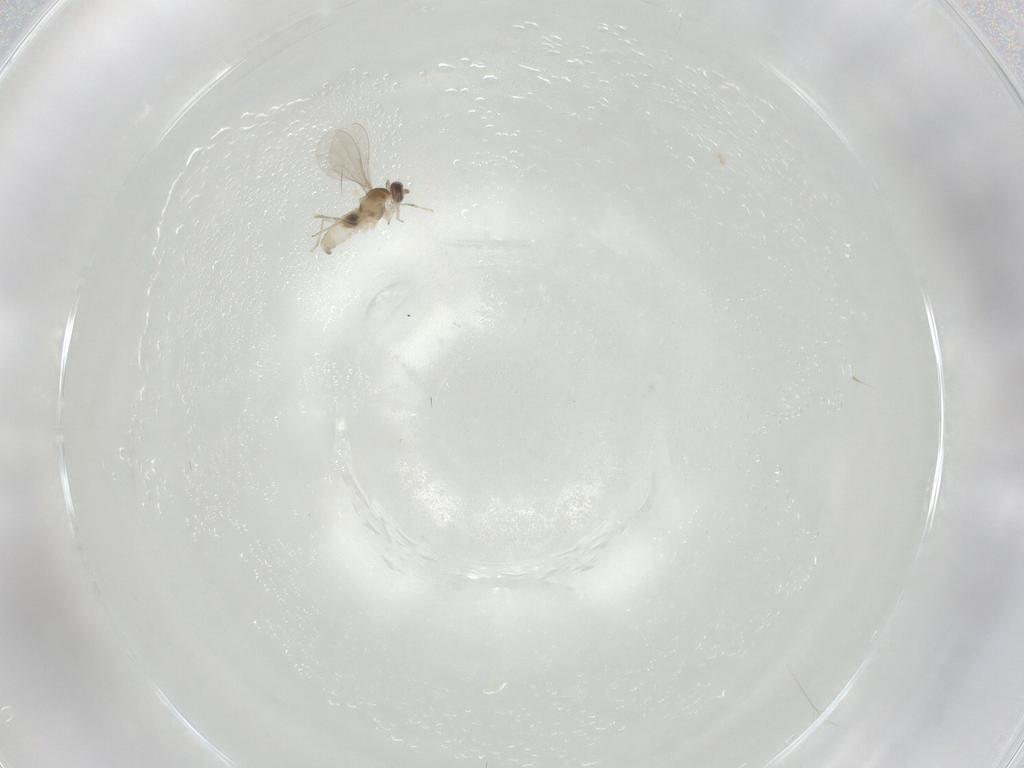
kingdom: Animalia
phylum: Arthropoda
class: Insecta
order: Diptera
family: Cecidomyiidae
